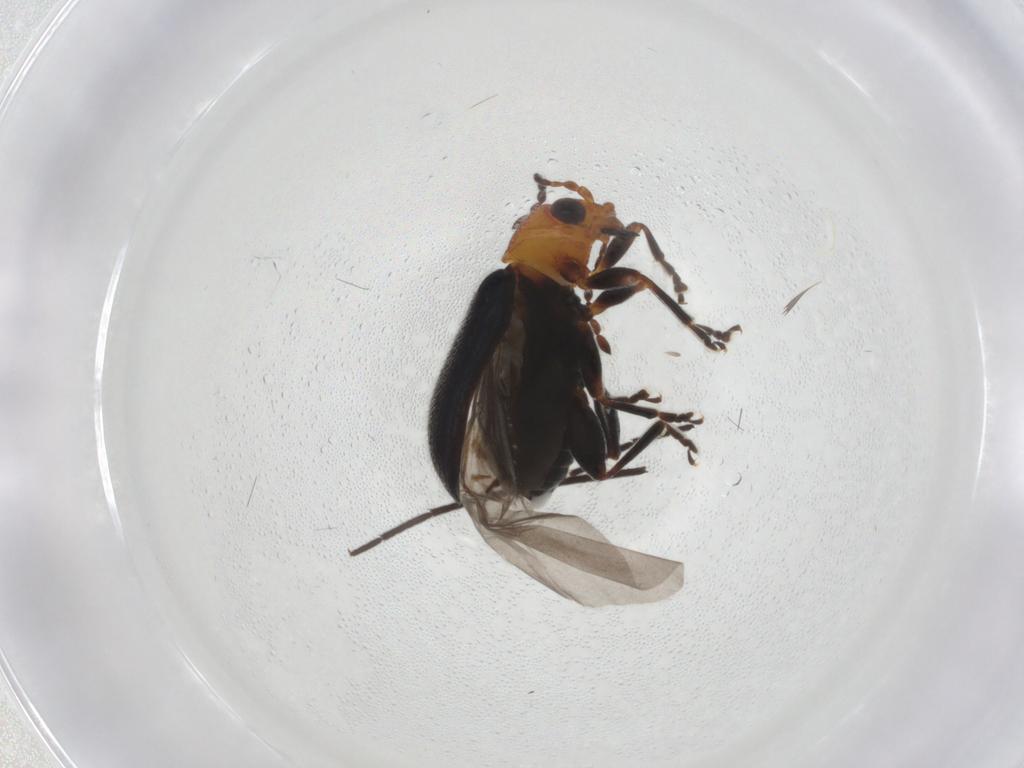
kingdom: Animalia
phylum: Arthropoda
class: Insecta
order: Coleoptera
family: Chrysomelidae
